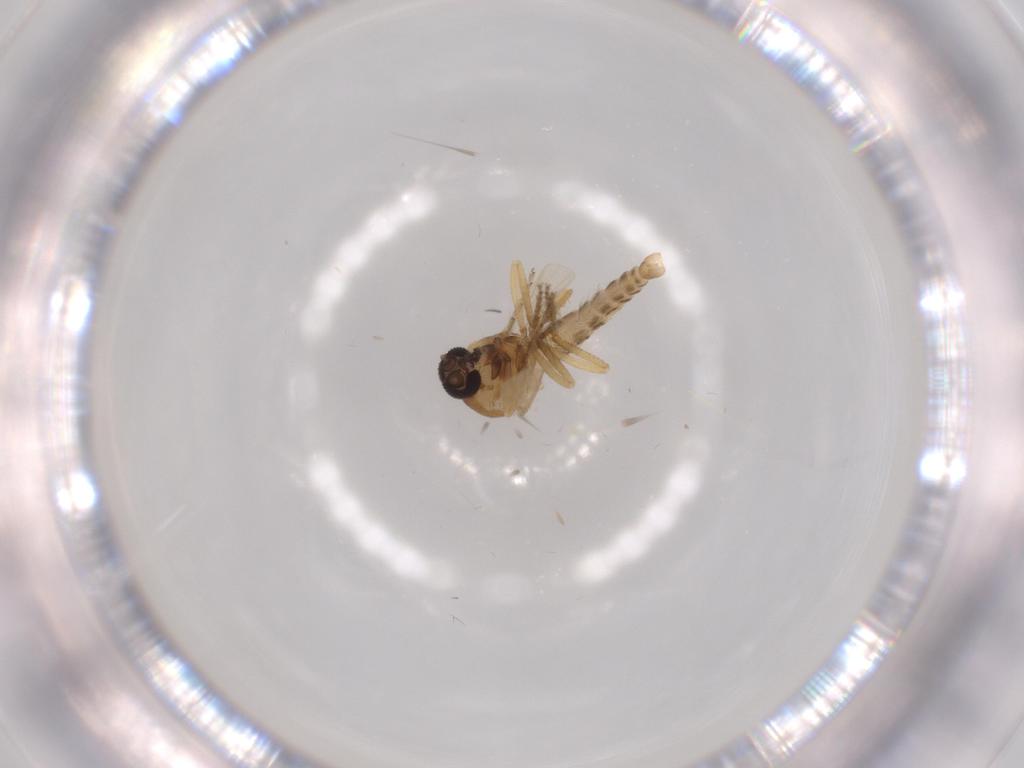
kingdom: Animalia
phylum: Arthropoda
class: Insecta
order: Diptera
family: Ceratopogonidae
